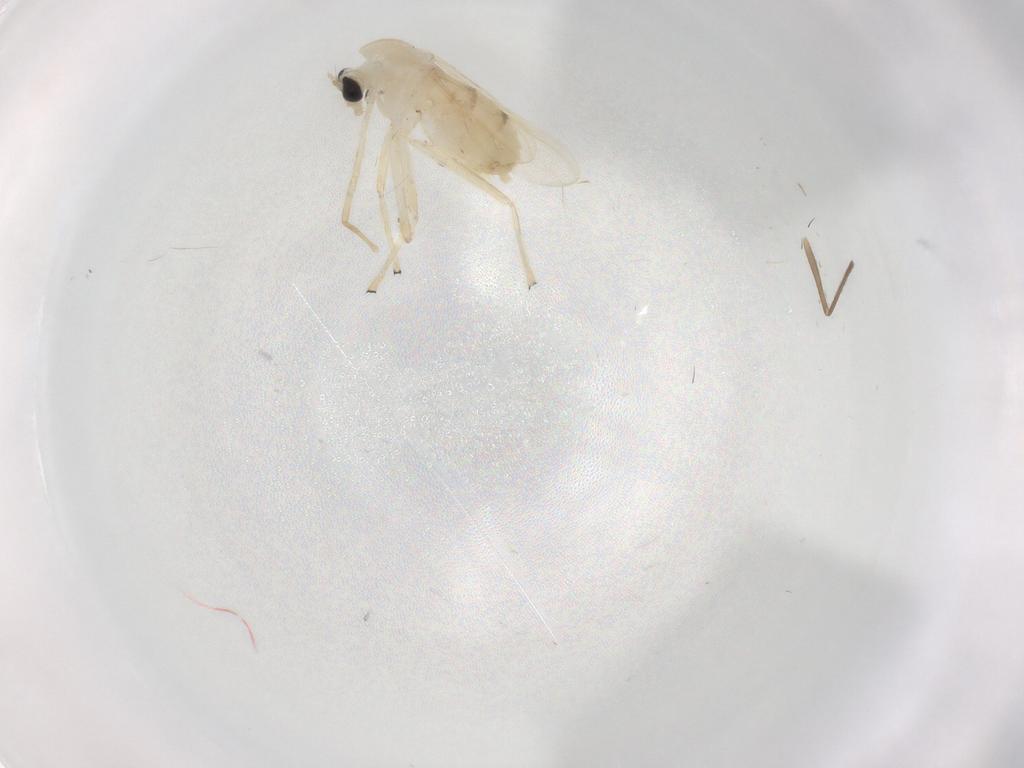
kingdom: Animalia
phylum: Arthropoda
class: Insecta
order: Diptera
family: Chironomidae
